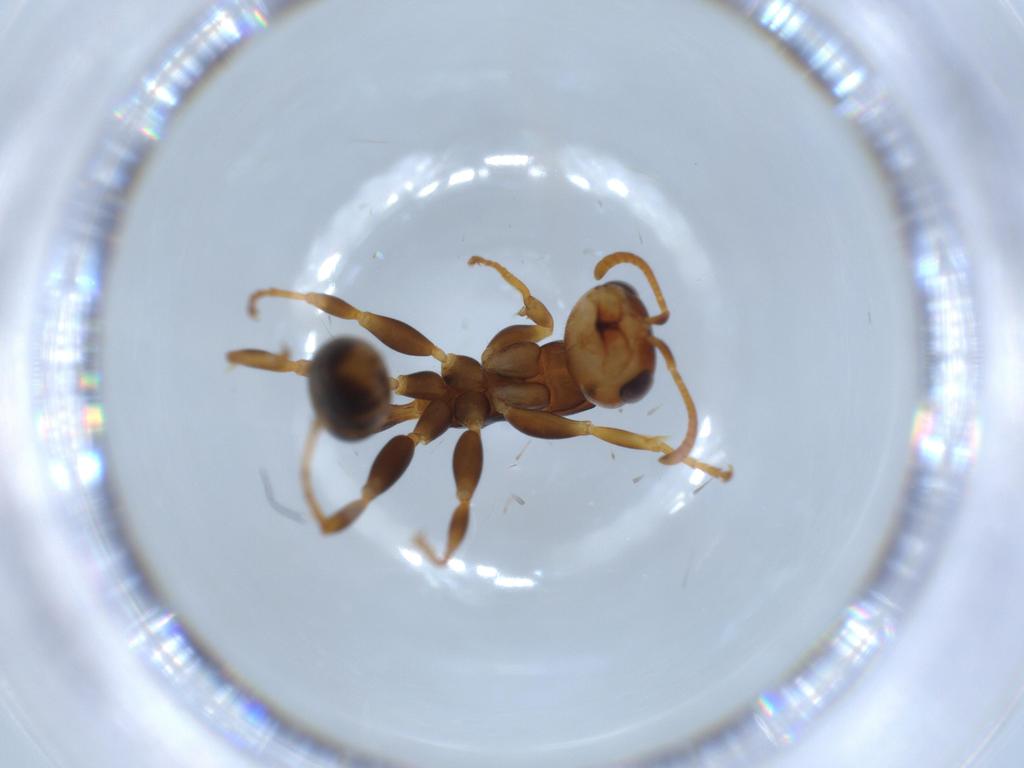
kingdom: Animalia
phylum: Arthropoda
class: Insecta
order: Hymenoptera
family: Formicidae
